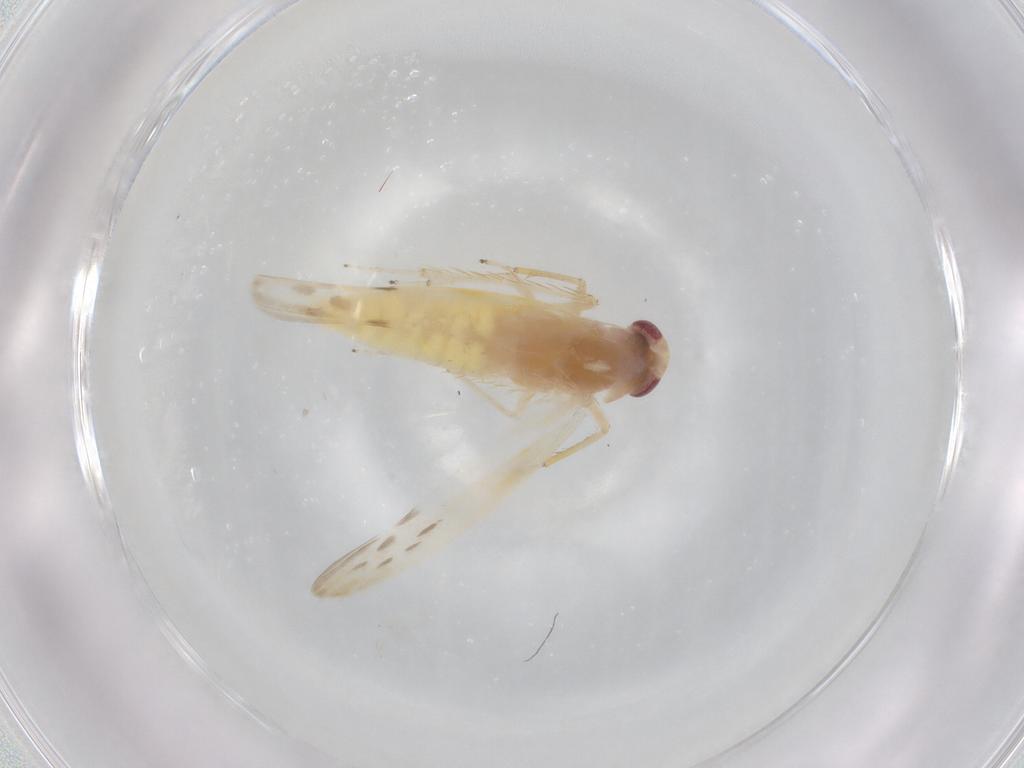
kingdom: Animalia
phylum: Arthropoda
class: Insecta
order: Hemiptera
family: Cicadellidae
